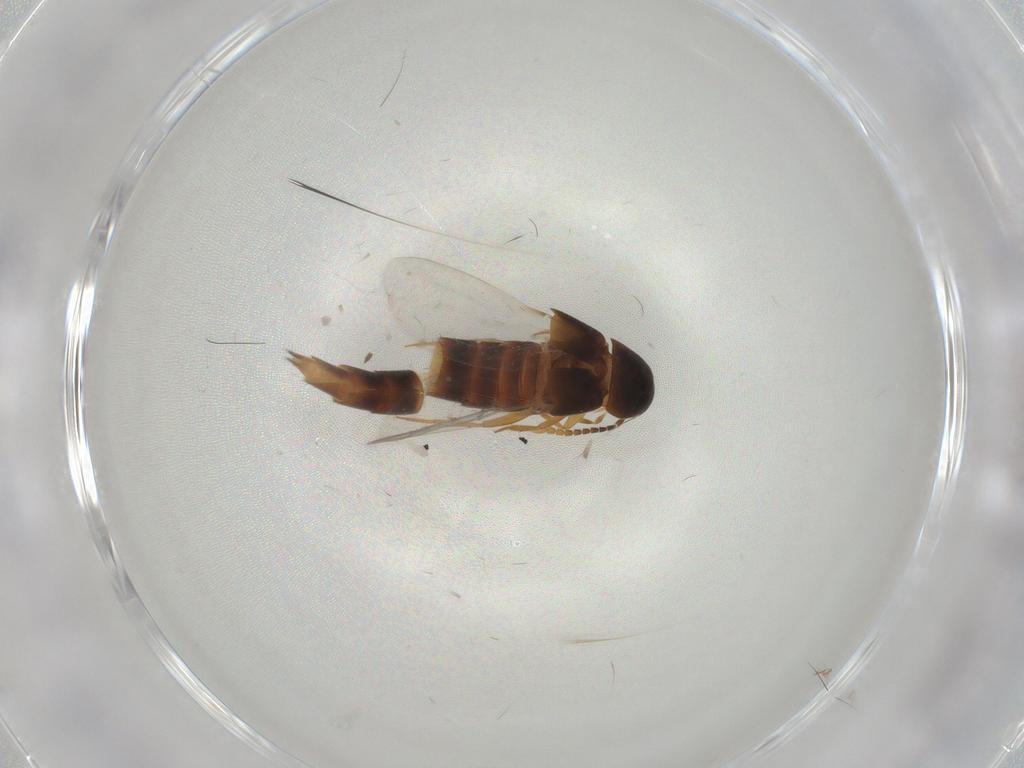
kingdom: Animalia
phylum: Arthropoda
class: Insecta
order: Coleoptera
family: Coccinellidae
